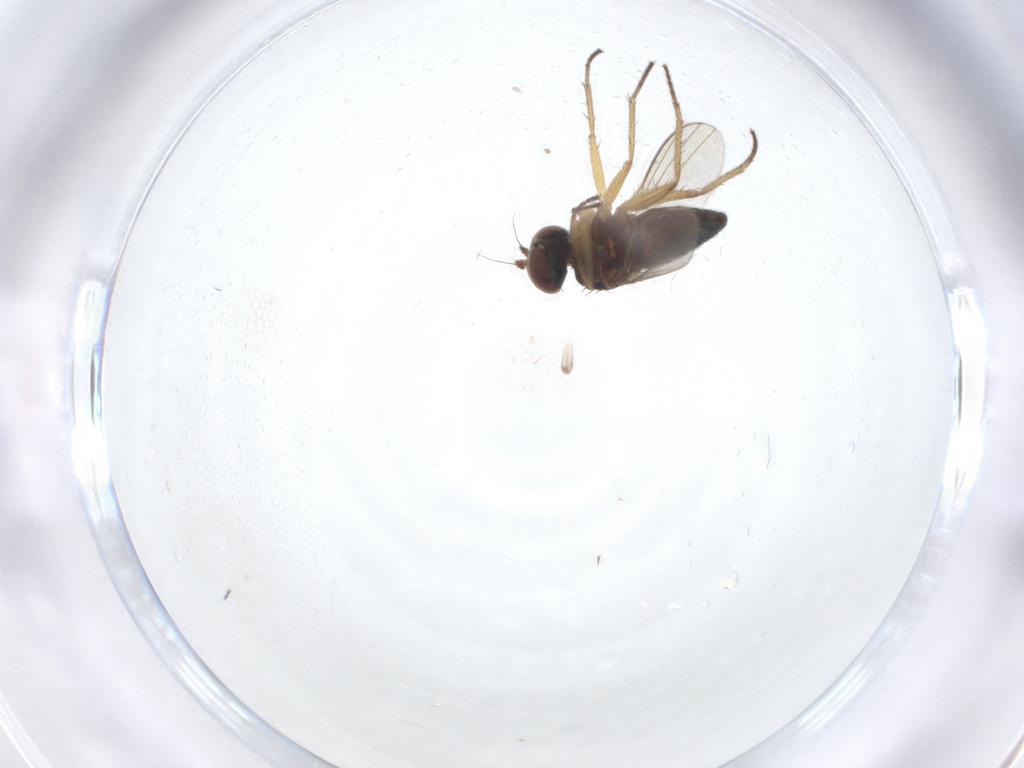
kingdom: Animalia
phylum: Arthropoda
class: Insecta
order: Diptera
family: Dolichopodidae
